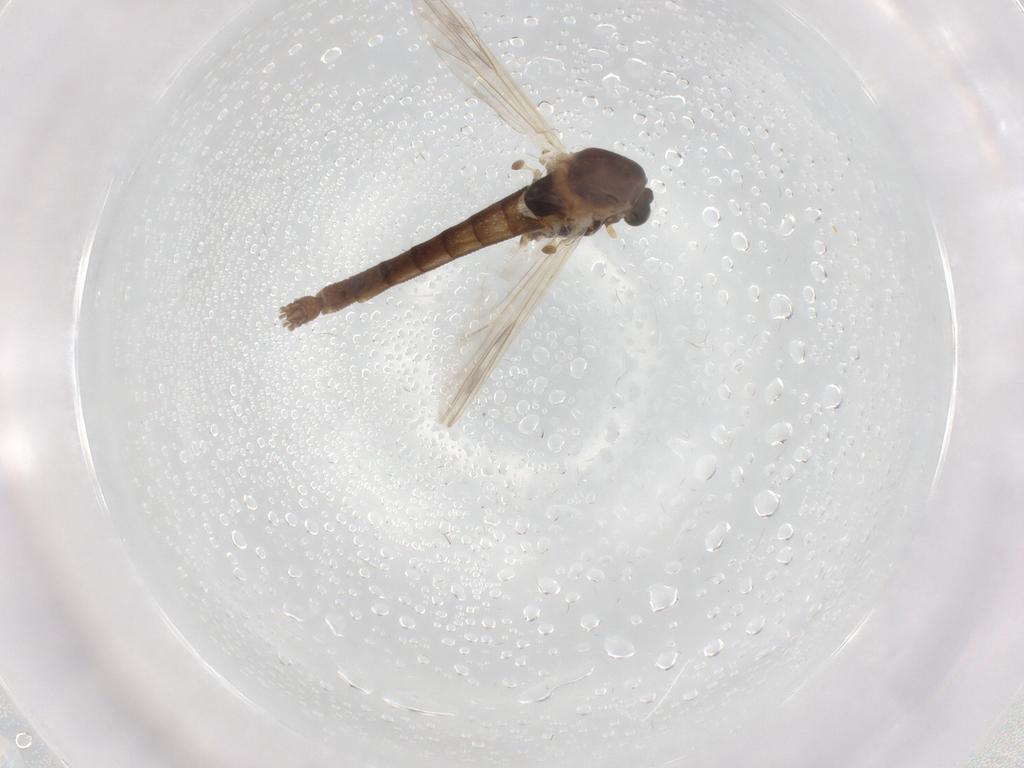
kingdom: Animalia
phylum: Arthropoda
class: Insecta
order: Diptera
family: Chironomidae
